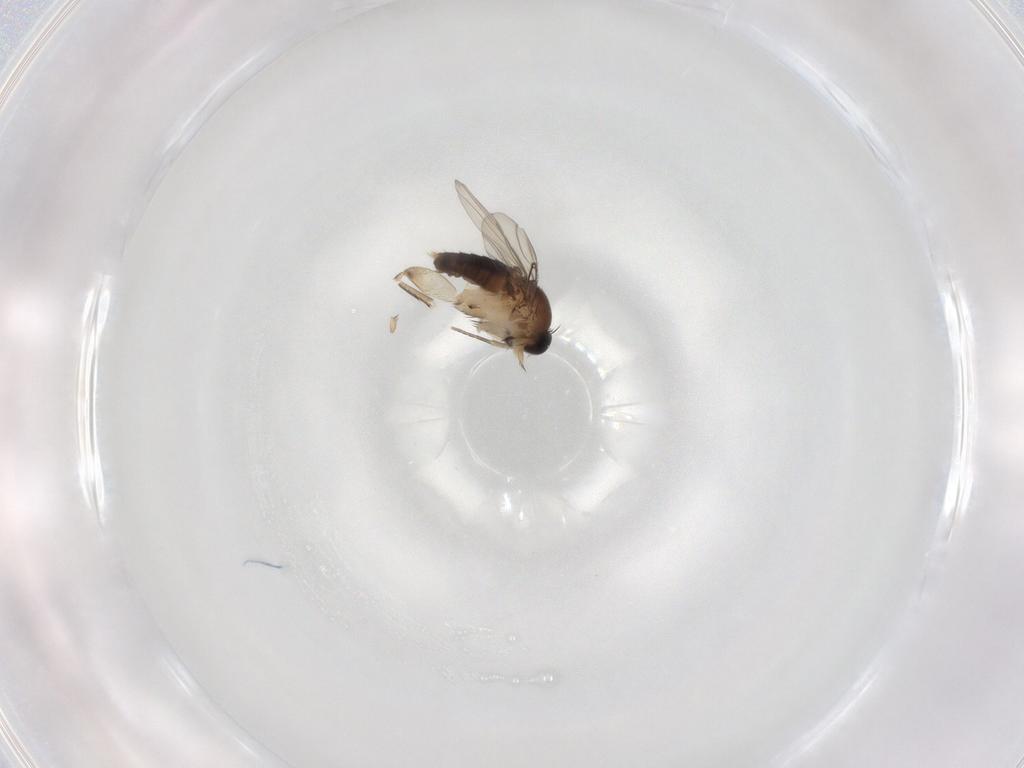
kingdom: Animalia
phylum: Arthropoda
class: Insecta
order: Diptera
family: Phoridae
